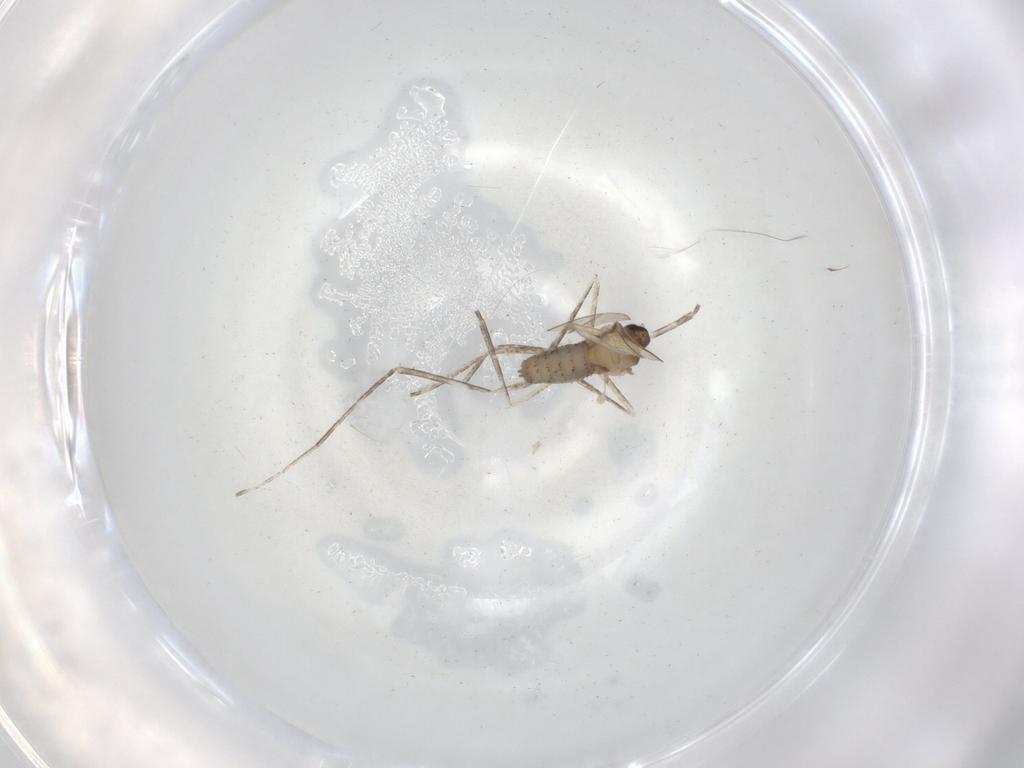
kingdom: Animalia
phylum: Arthropoda
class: Insecta
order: Diptera
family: Cecidomyiidae
